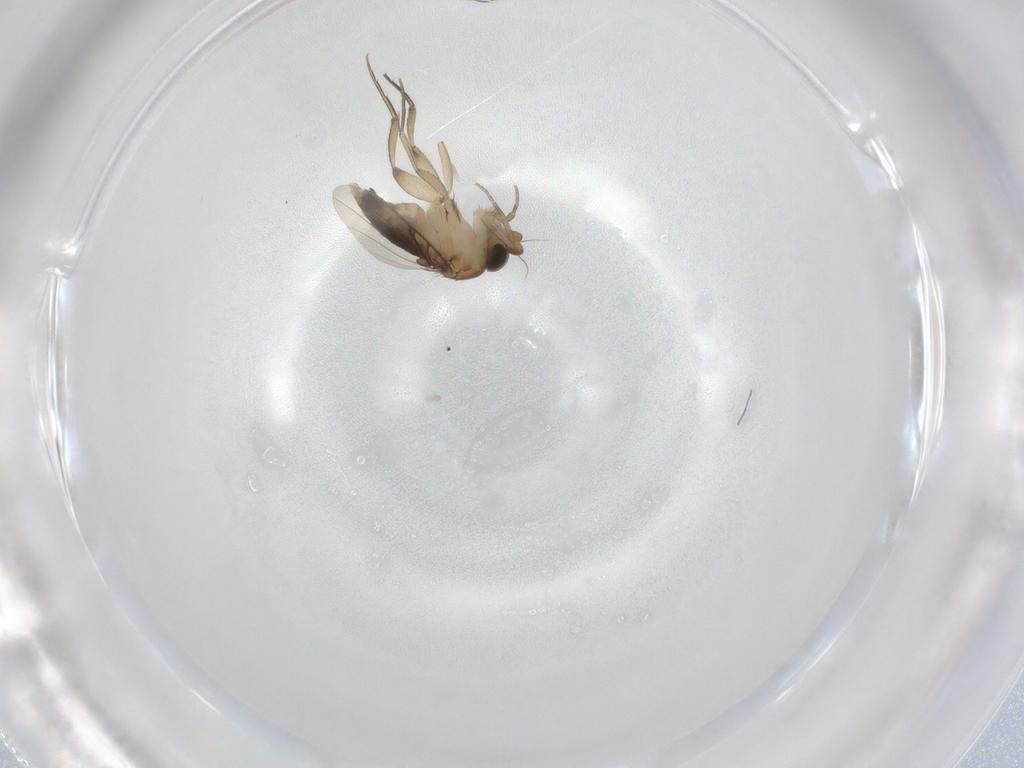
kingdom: Animalia
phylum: Arthropoda
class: Insecta
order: Diptera
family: Phoridae
